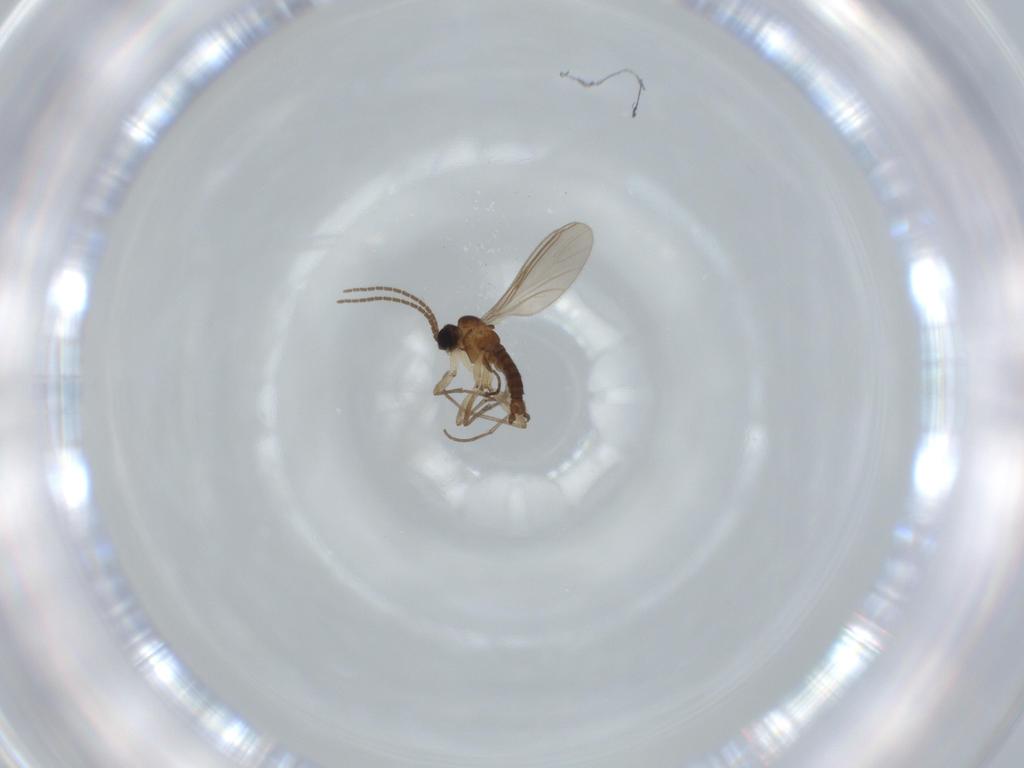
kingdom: Animalia
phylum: Arthropoda
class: Insecta
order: Diptera
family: Sciaridae
